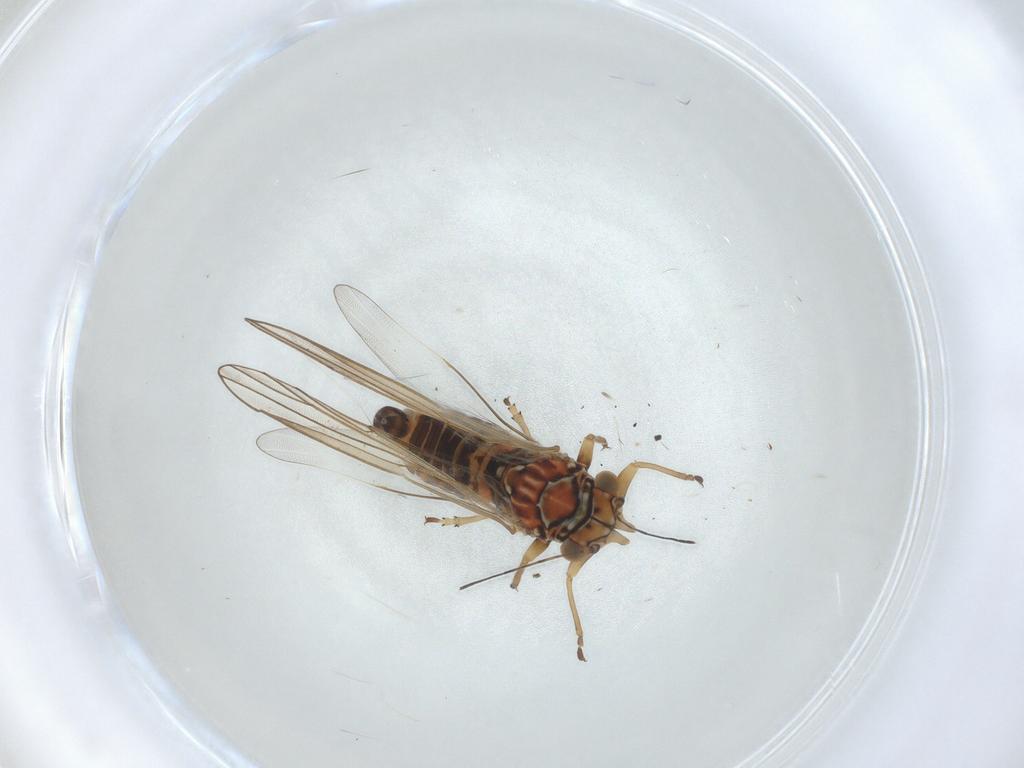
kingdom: Animalia
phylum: Arthropoda
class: Insecta
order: Hemiptera
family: Psyllidae
